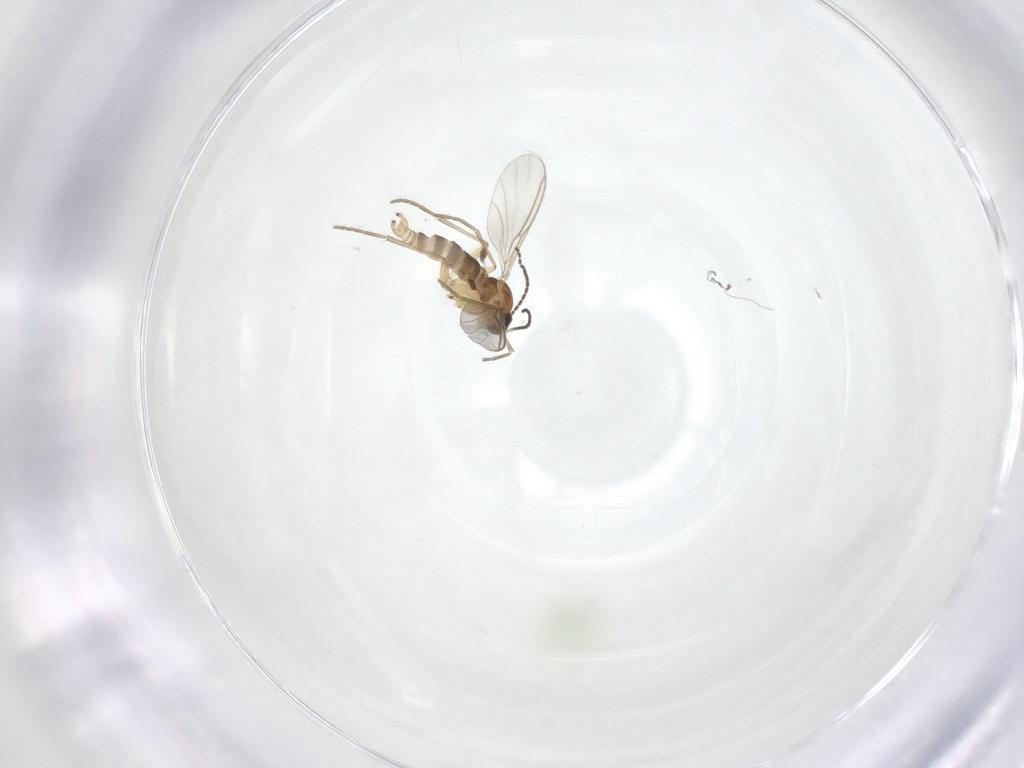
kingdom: Animalia
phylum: Arthropoda
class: Insecta
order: Diptera
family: Sciaridae
